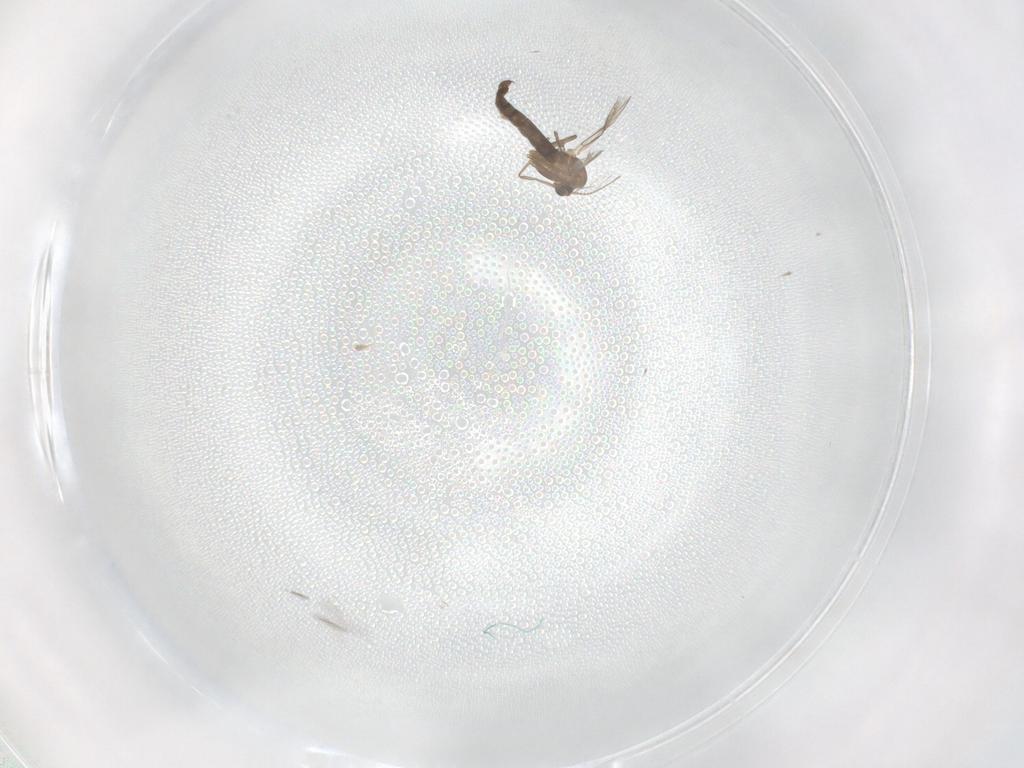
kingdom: Animalia
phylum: Arthropoda
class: Insecta
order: Diptera
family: Chironomidae
